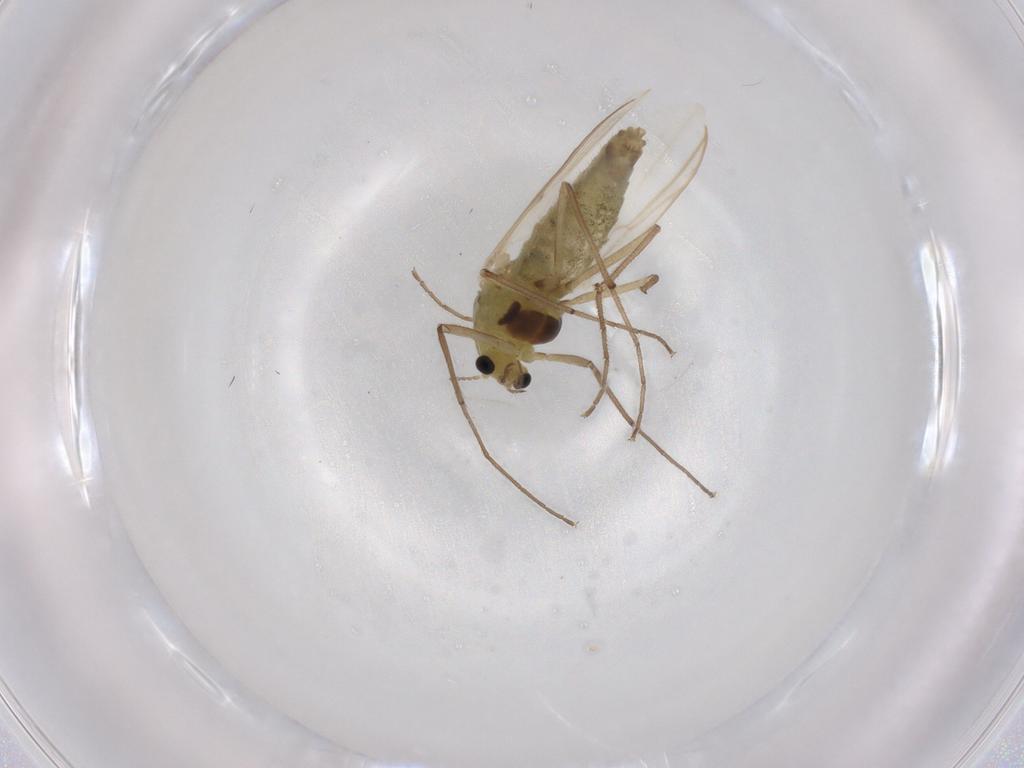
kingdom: Animalia
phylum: Arthropoda
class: Insecta
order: Diptera
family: Chironomidae
